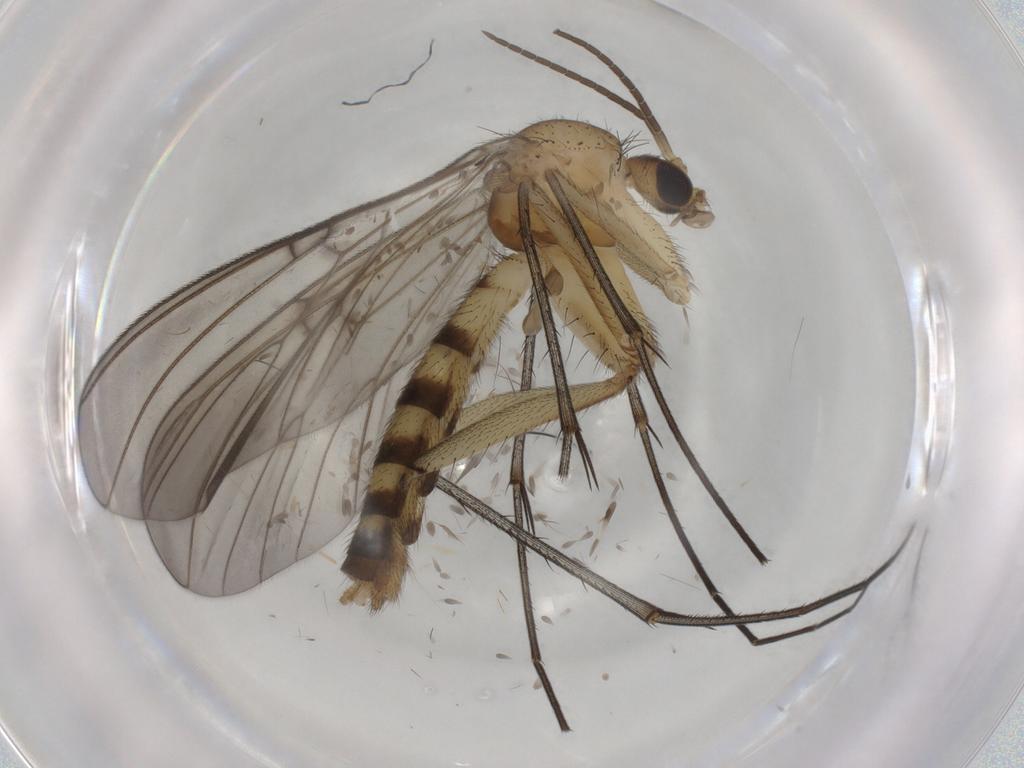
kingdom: Animalia
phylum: Arthropoda
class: Insecta
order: Diptera
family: Mycetophilidae
